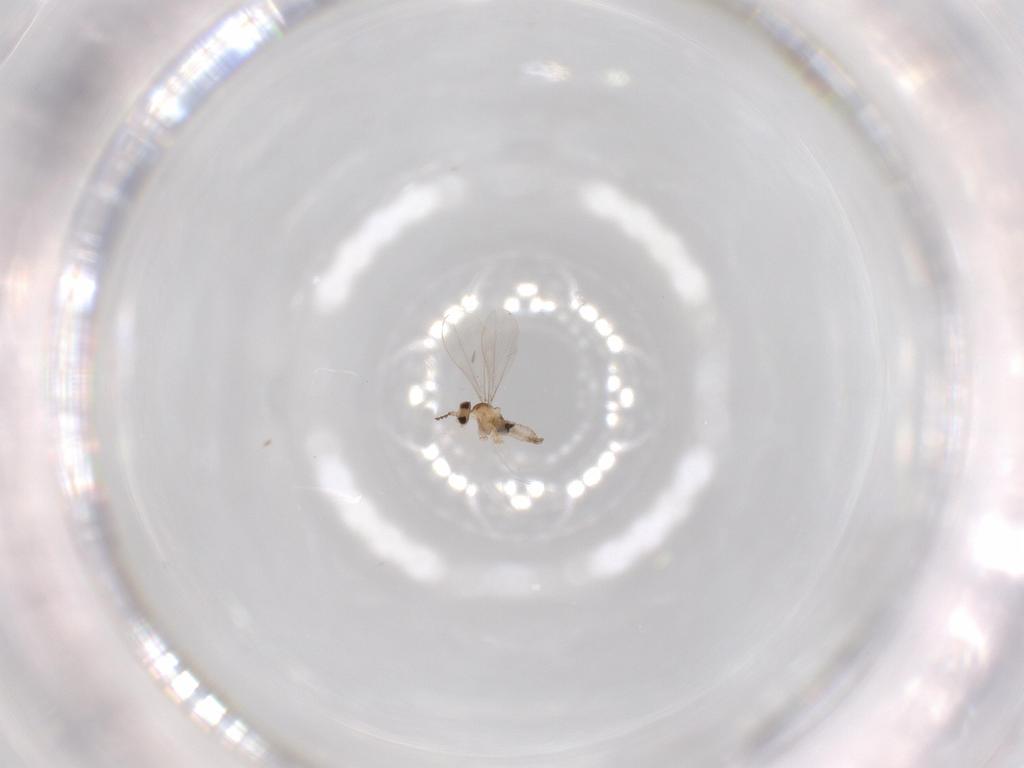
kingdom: Animalia
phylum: Arthropoda
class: Insecta
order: Diptera
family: Cecidomyiidae
